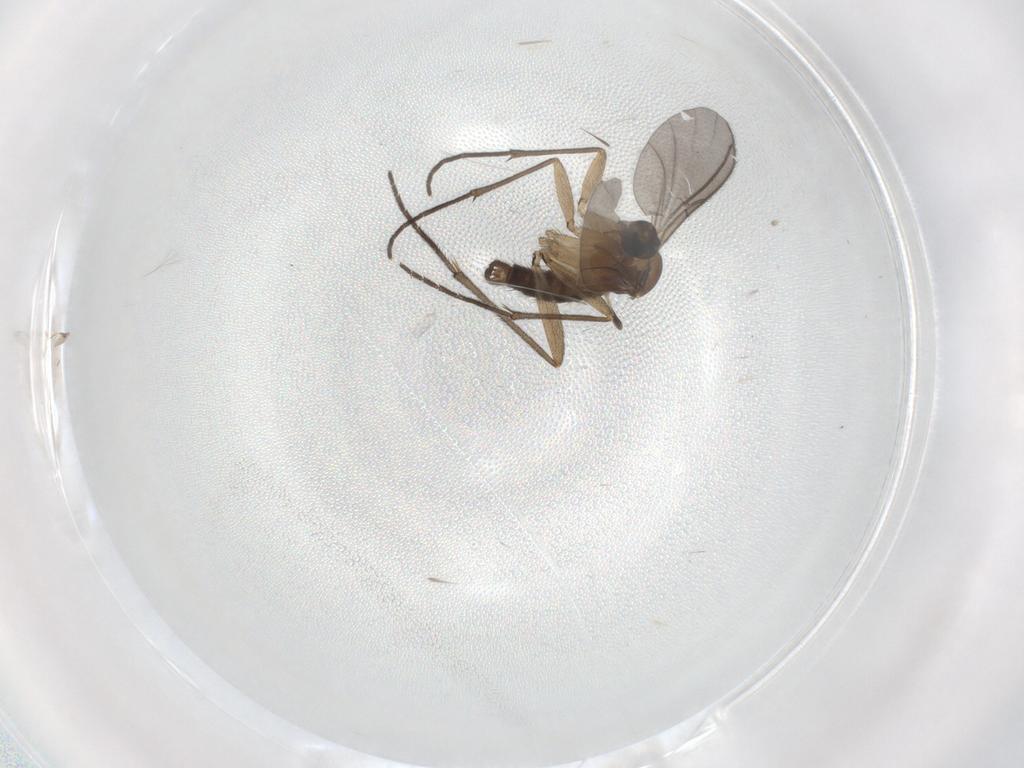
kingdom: Animalia
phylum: Arthropoda
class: Insecta
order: Diptera
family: Sciaridae
